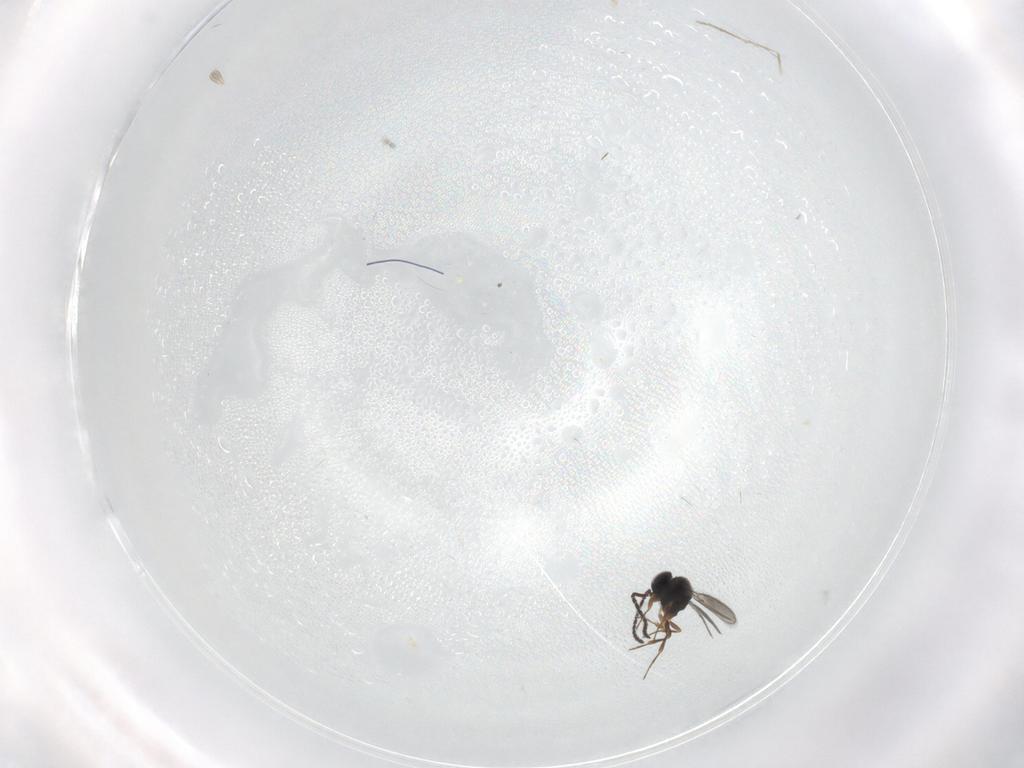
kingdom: Animalia
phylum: Arthropoda
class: Insecta
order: Hymenoptera
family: Scelionidae
